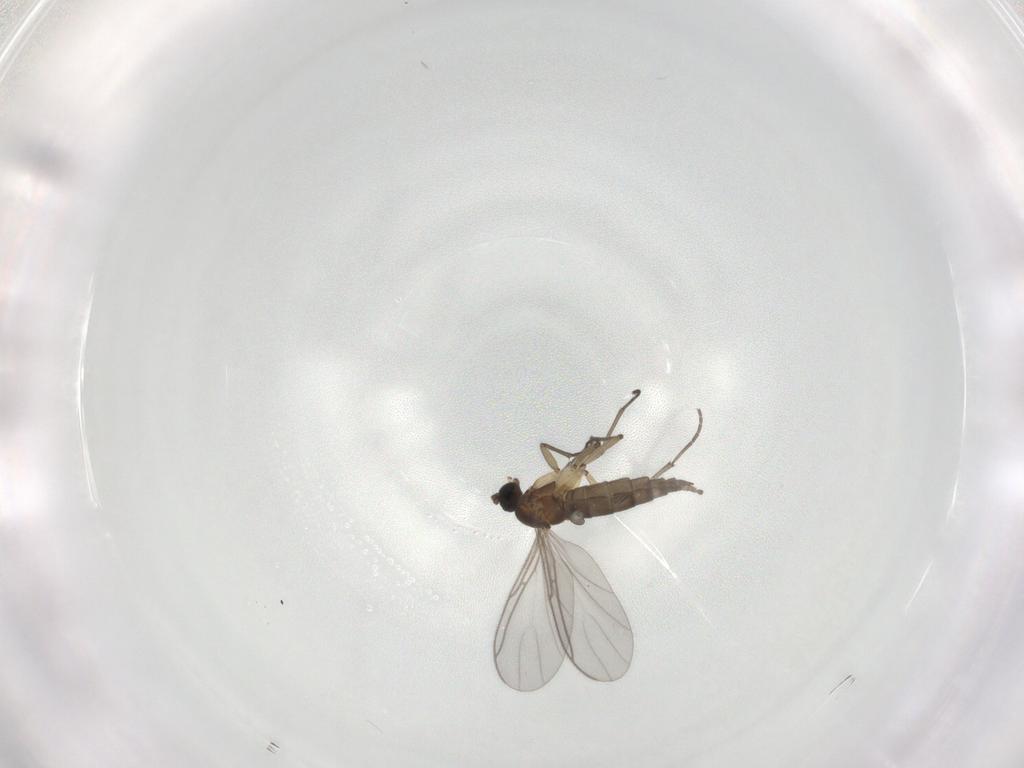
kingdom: Animalia
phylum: Arthropoda
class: Insecta
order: Diptera
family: Sciaridae
